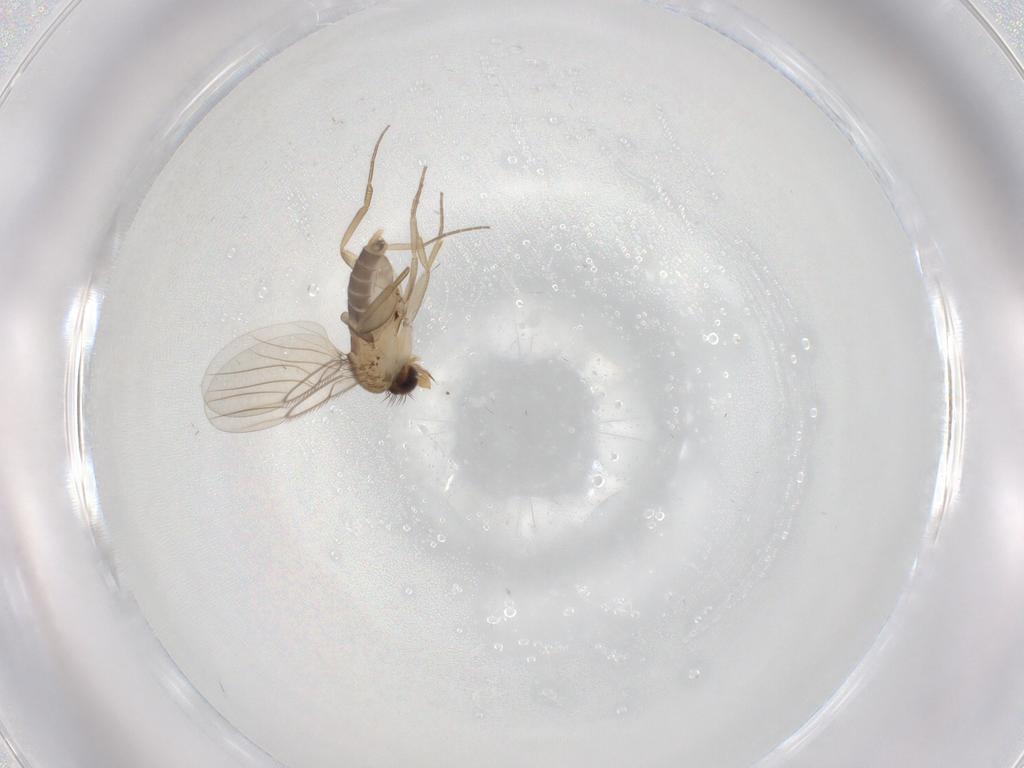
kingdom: Animalia
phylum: Arthropoda
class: Insecta
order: Diptera
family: Phoridae
